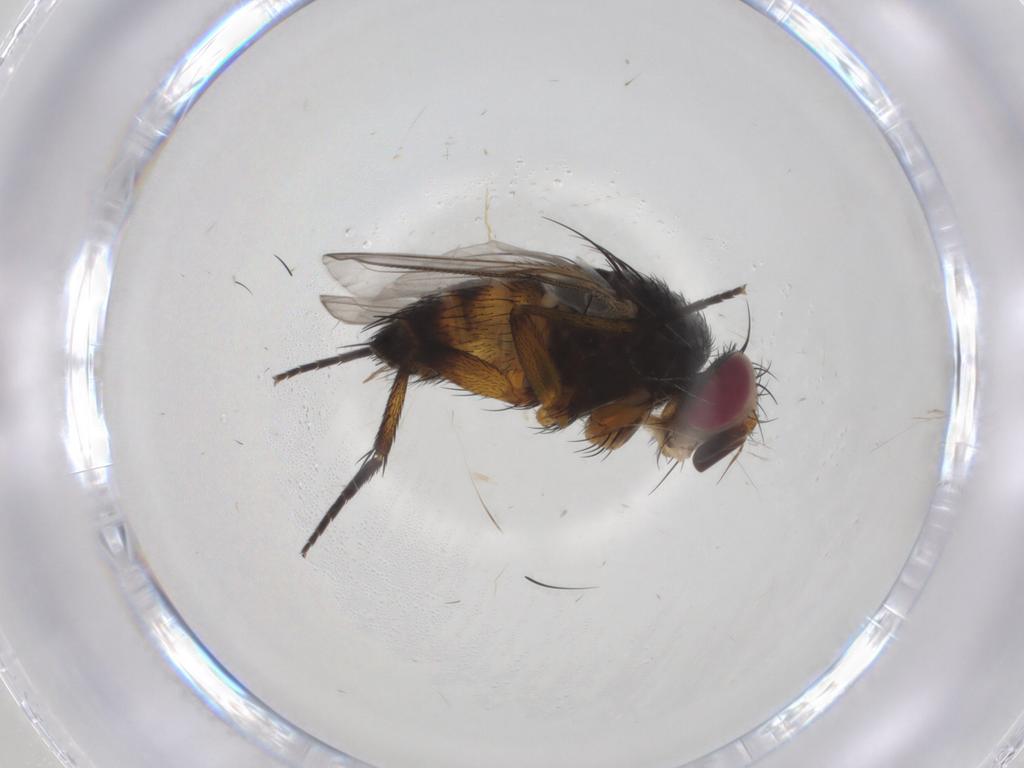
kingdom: Animalia
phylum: Arthropoda
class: Insecta
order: Diptera
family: Muscidae
